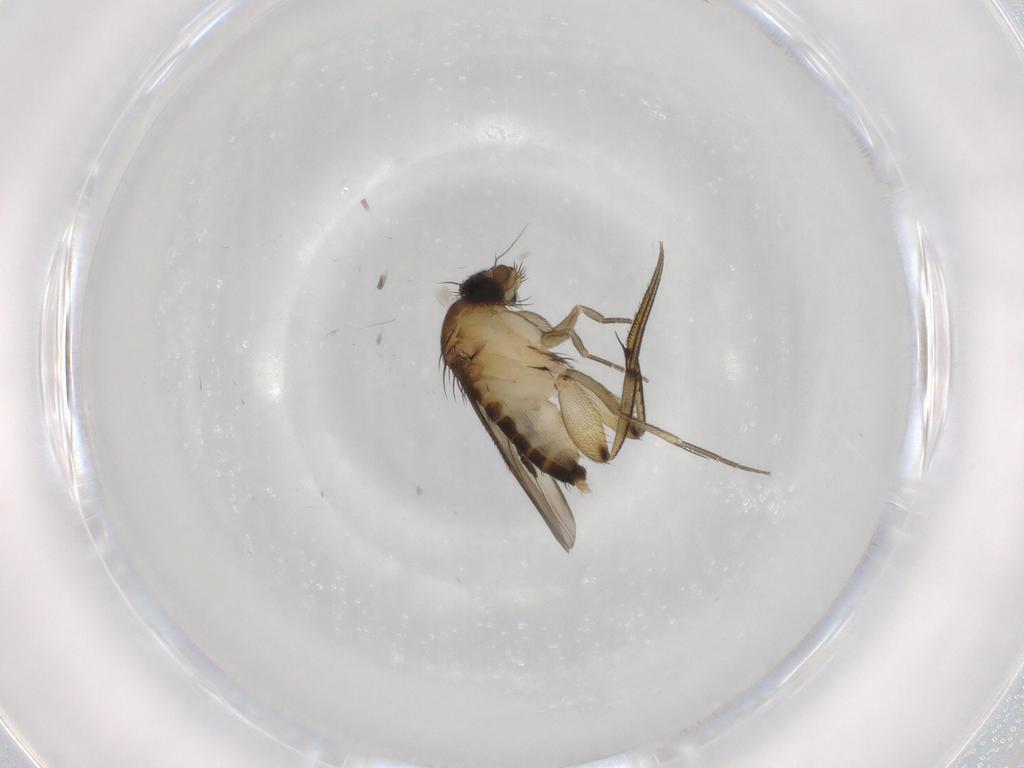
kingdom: Animalia
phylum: Arthropoda
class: Insecta
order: Diptera
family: Phoridae
